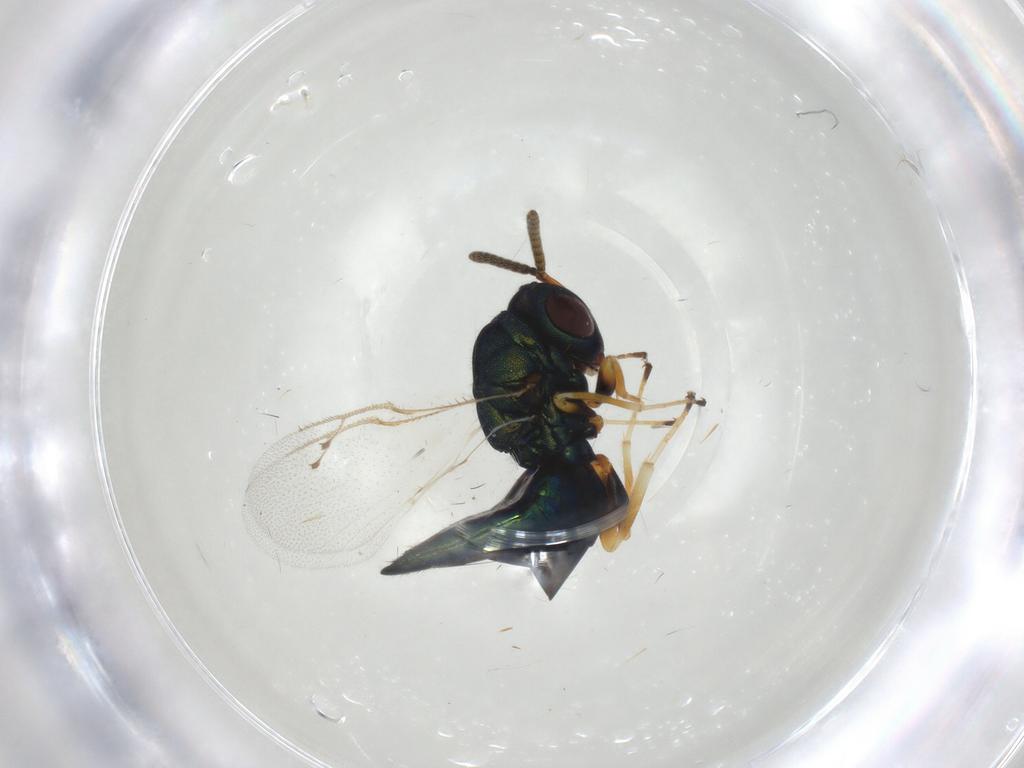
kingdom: Animalia
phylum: Arthropoda
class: Insecta
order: Hymenoptera
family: Pteromalidae
